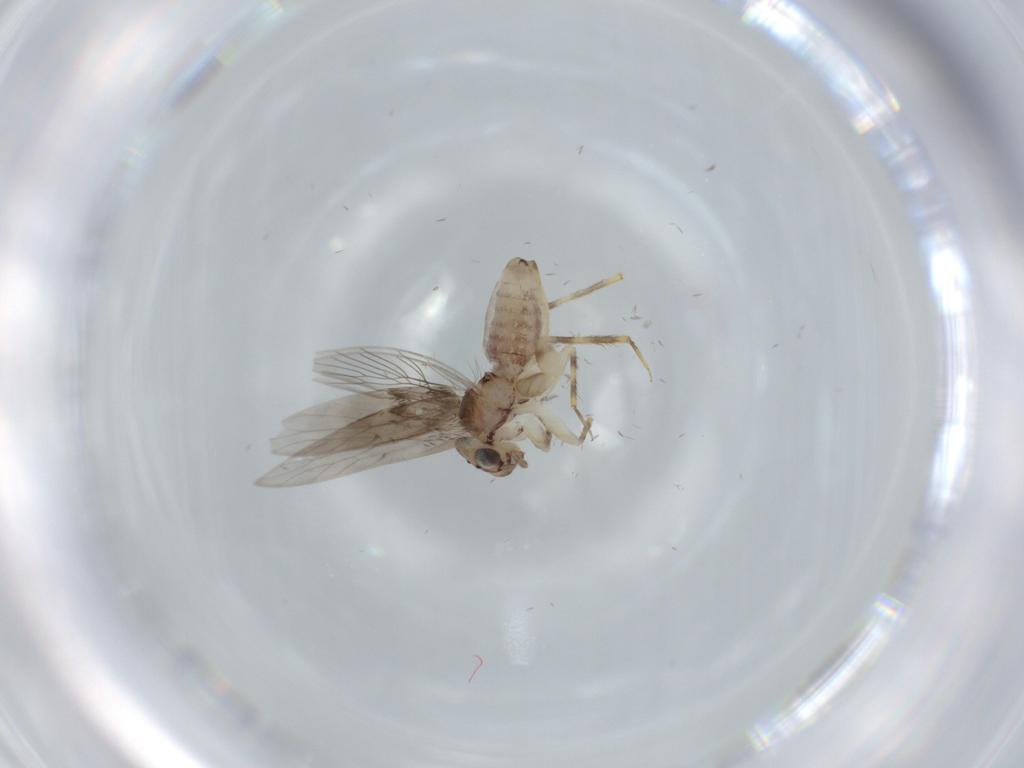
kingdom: Animalia
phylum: Arthropoda
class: Insecta
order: Psocodea
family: Lepidopsocidae
